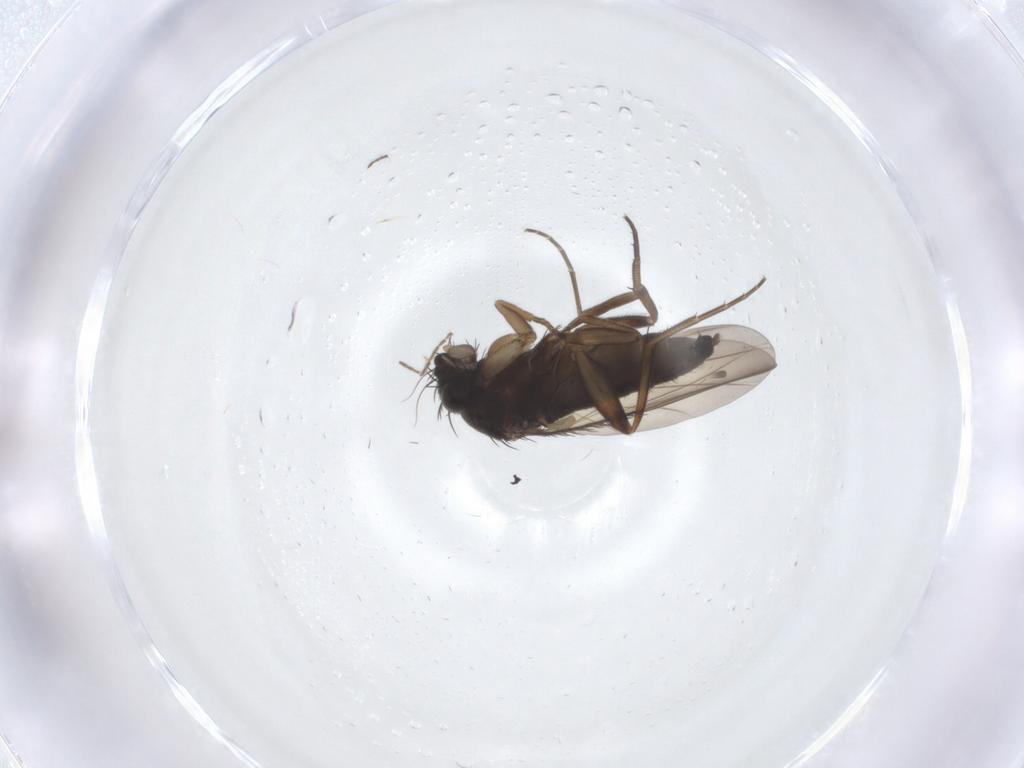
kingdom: Animalia
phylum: Arthropoda
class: Insecta
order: Diptera
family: Phoridae
